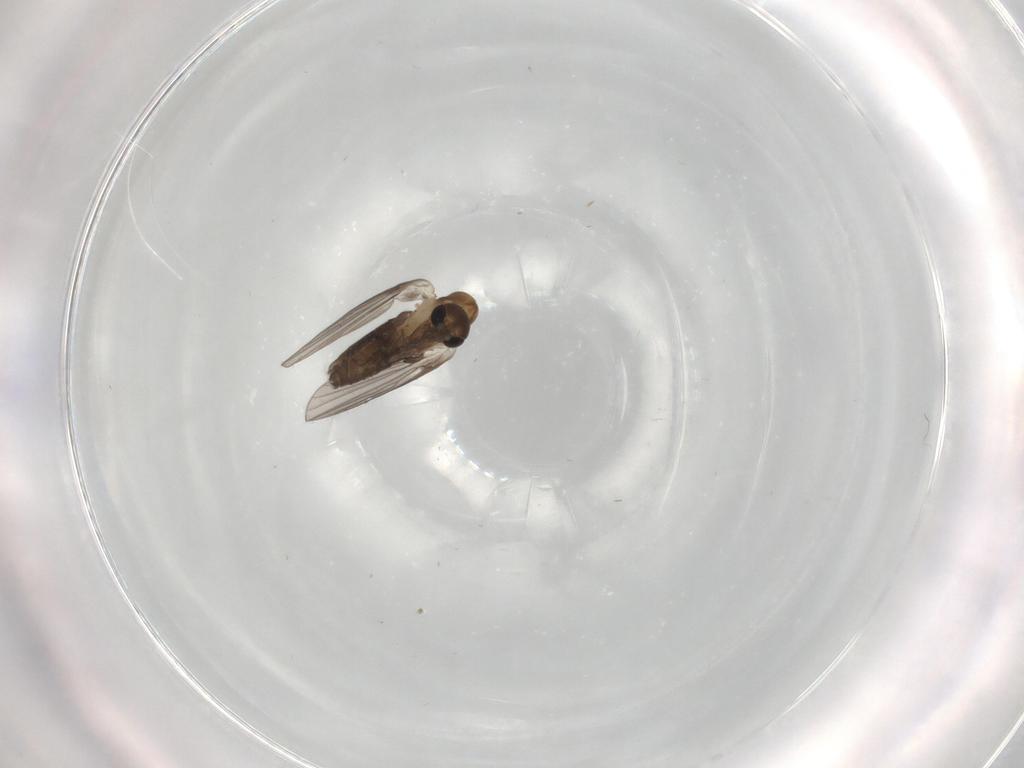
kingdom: Animalia
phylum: Arthropoda
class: Insecta
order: Diptera
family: Psychodidae
